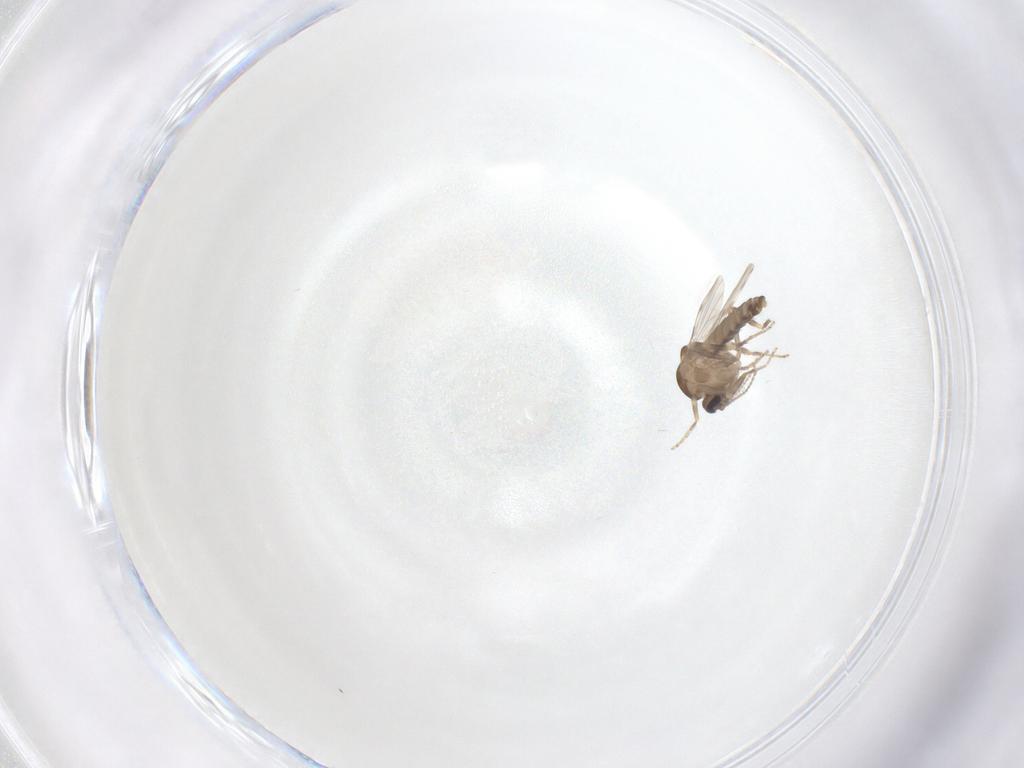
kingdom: Animalia
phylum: Arthropoda
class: Insecta
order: Diptera
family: Ceratopogonidae
